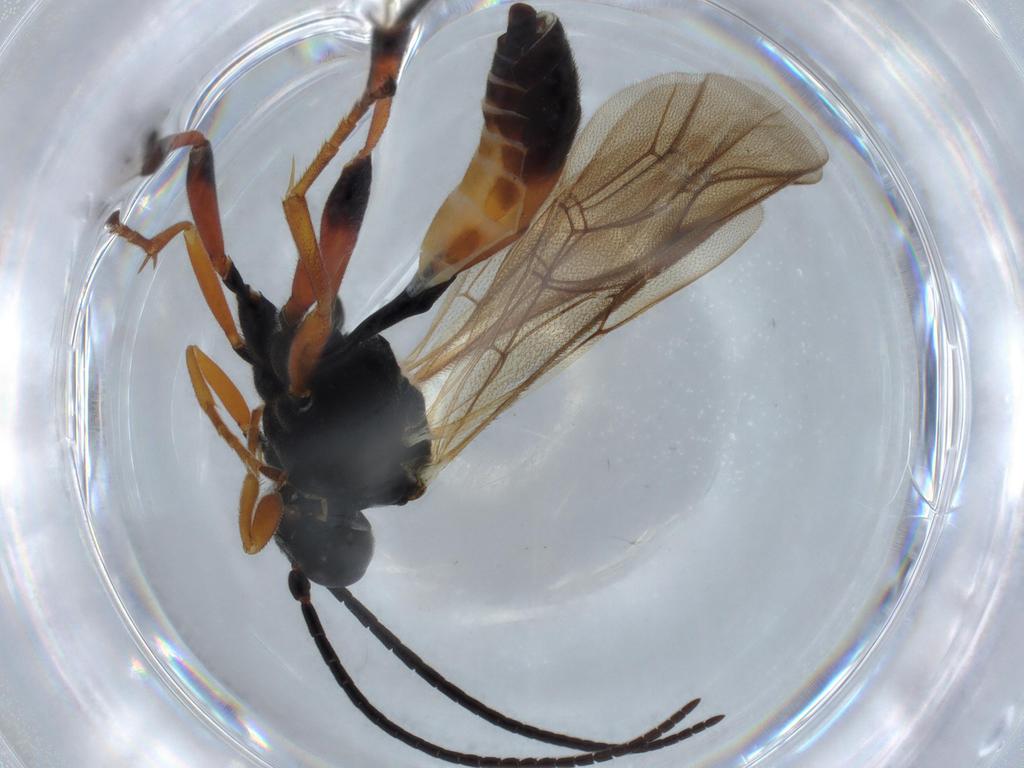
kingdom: Animalia
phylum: Arthropoda
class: Insecta
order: Hymenoptera
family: Ichneumonidae
